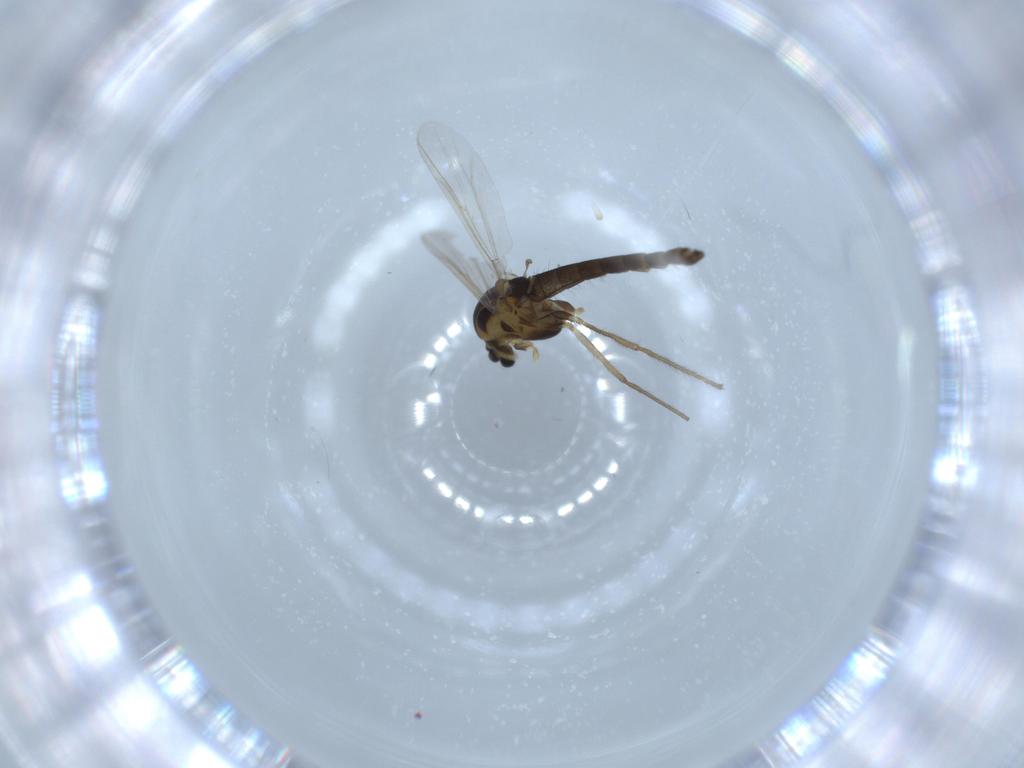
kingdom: Animalia
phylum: Arthropoda
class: Insecta
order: Diptera
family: Chironomidae
